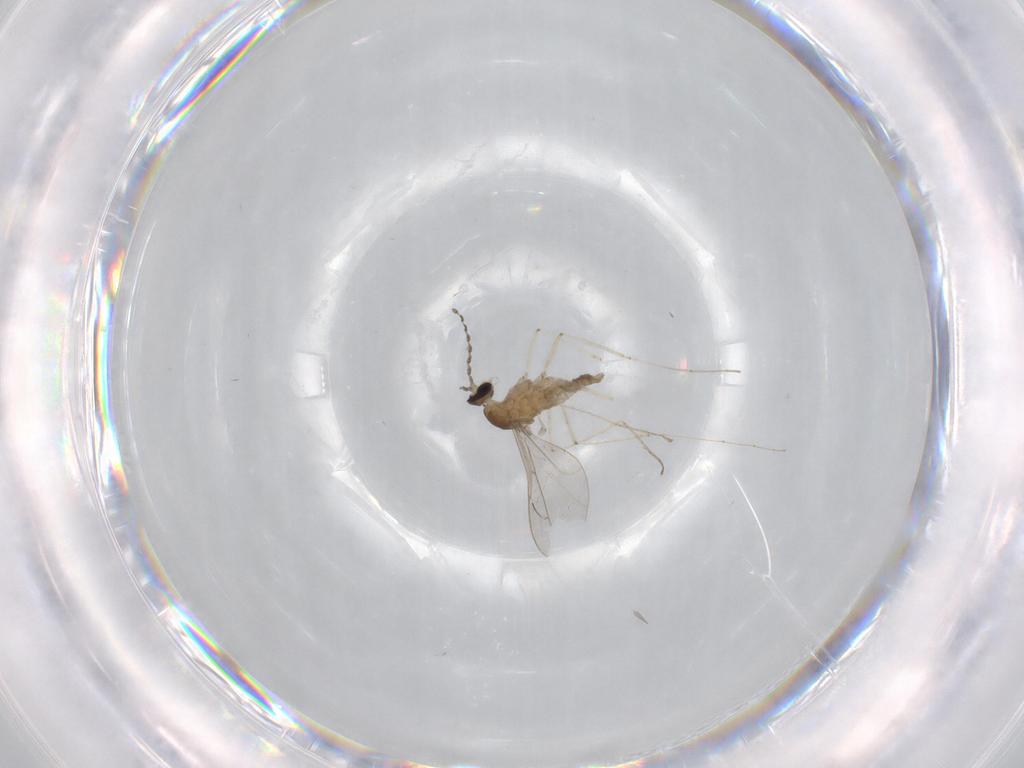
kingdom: Animalia
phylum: Arthropoda
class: Insecta
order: Diptera
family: Cecidomyiidae
